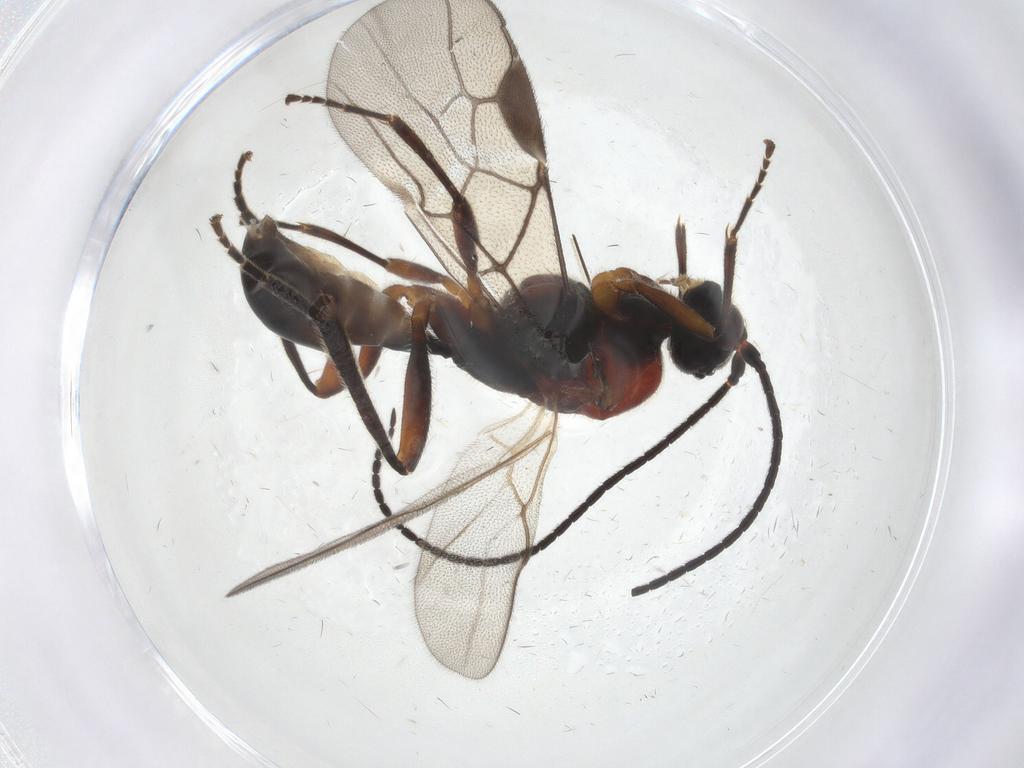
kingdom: Animalia
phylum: Arthropoda
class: Insecta
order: Hymenoptera
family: Braconidae
